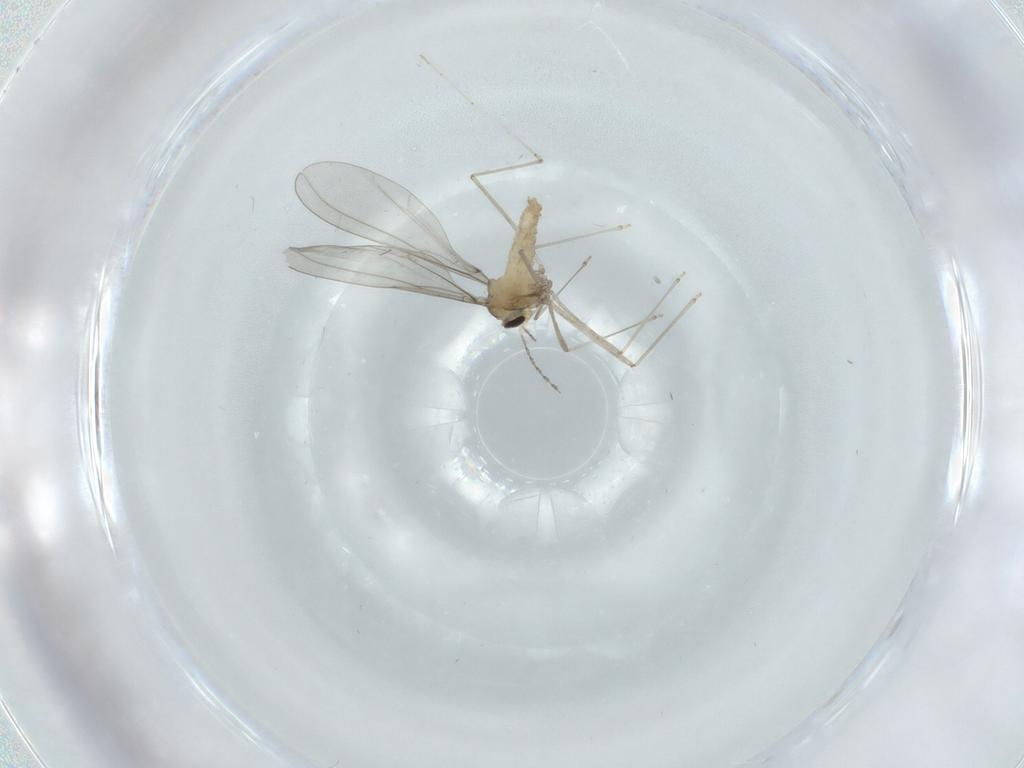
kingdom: Animalia
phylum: Arthropoda
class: Insecta
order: Diptera
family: Cecidomyiidae
